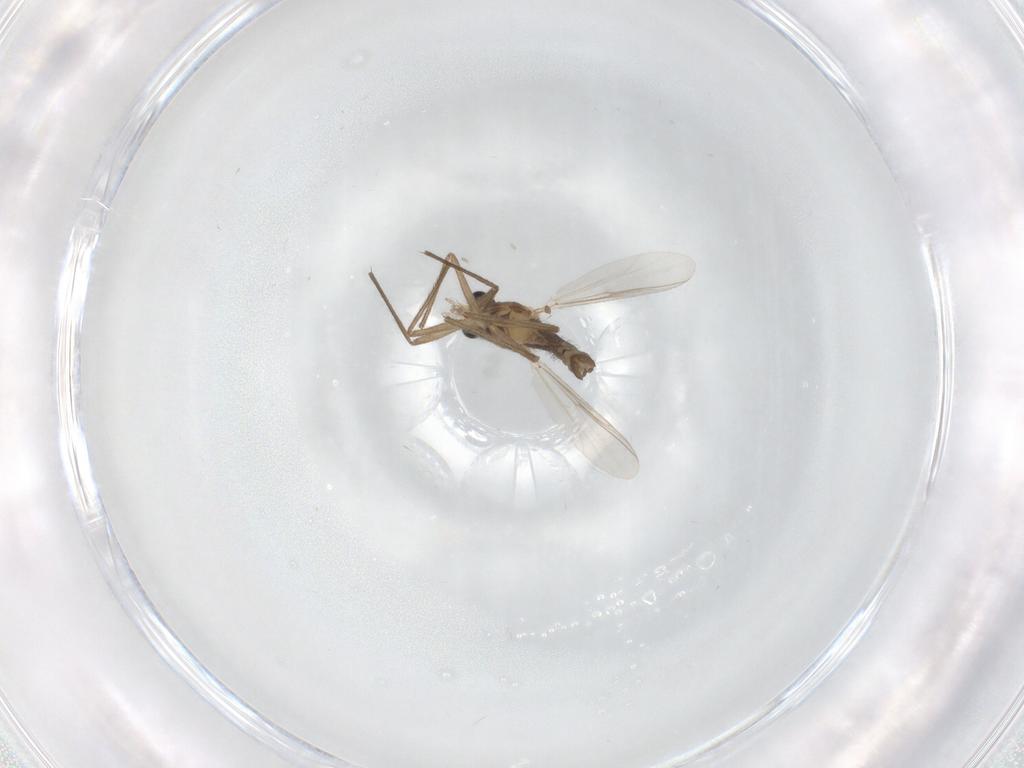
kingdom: Animalia
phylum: Arthropoda
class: Insecta
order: Diptera
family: Chironomidae
